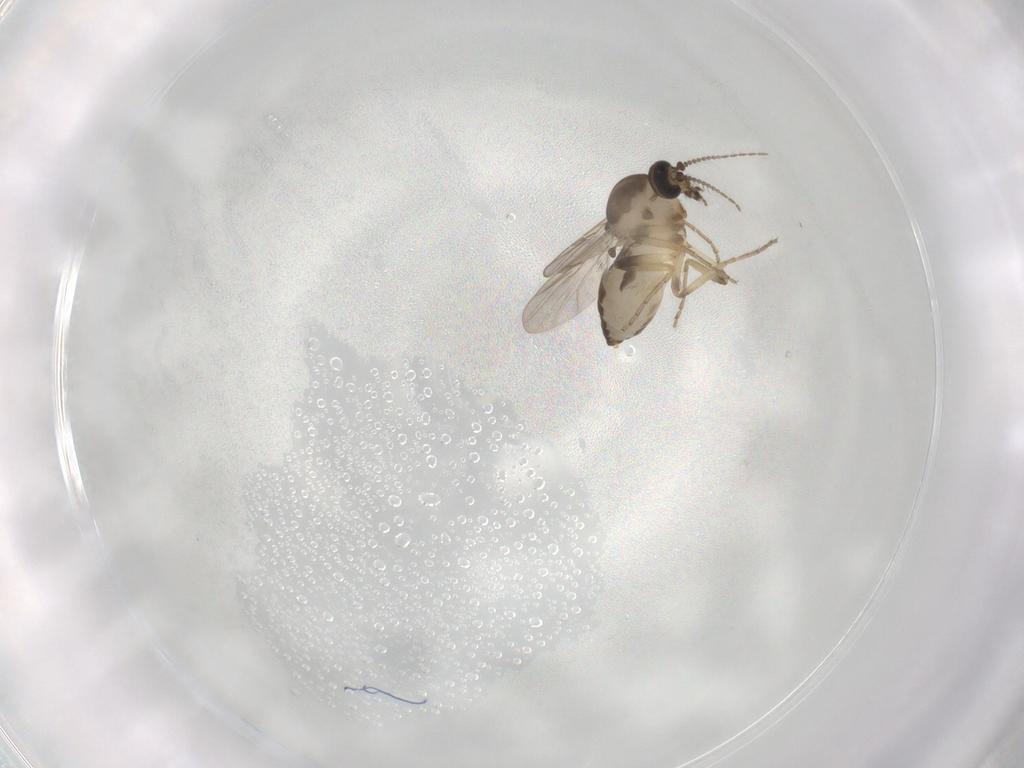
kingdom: Animalia
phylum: Arthropoda
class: Insecta
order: Diptera
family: Ceratopogonidae
